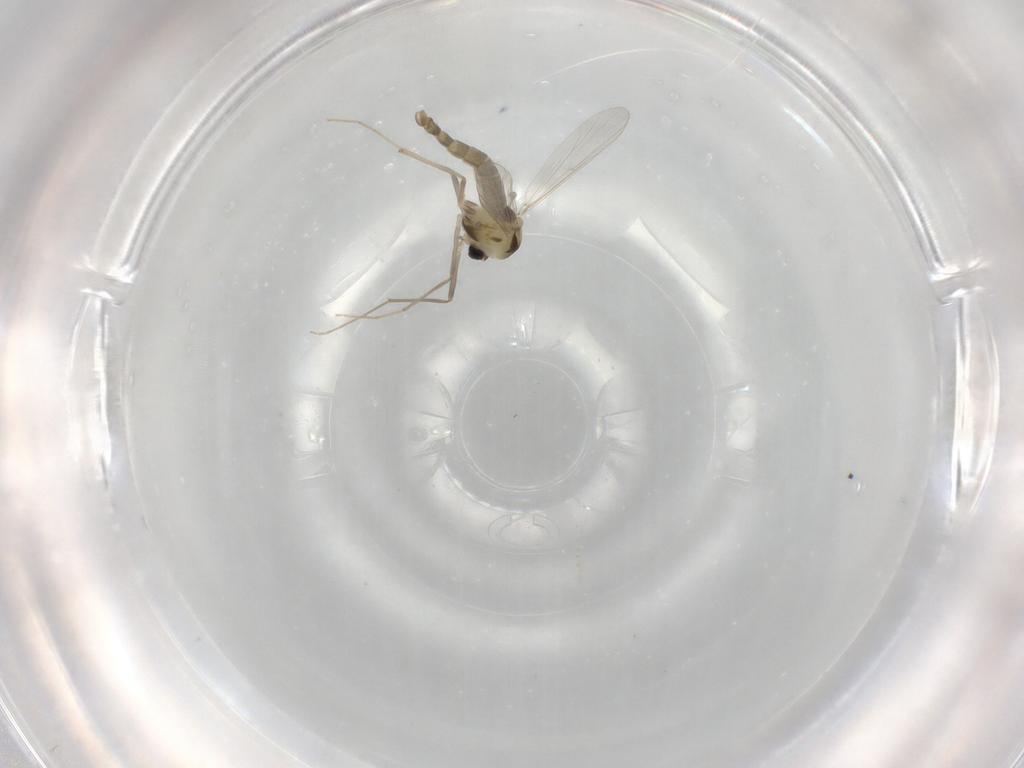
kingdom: Animalia
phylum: Arthropoda
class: Insecta
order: Diptera
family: Chironomidae
